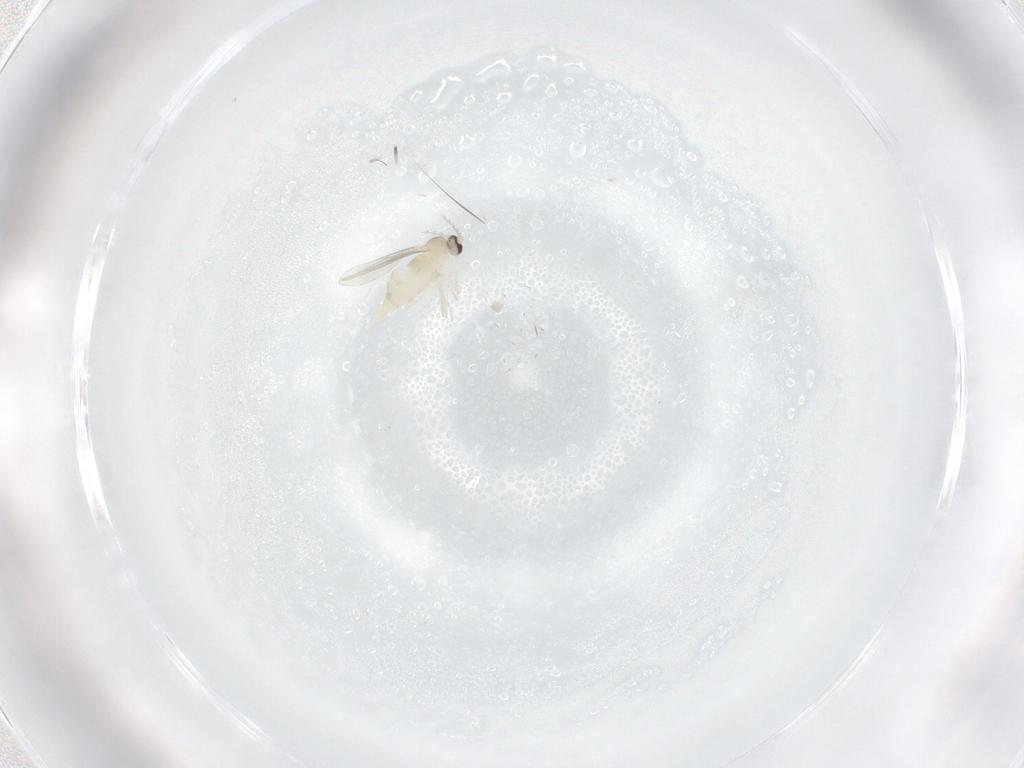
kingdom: Animalia
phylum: Arthropoda
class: Insecta
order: Diptera
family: Cecidomyiidae
